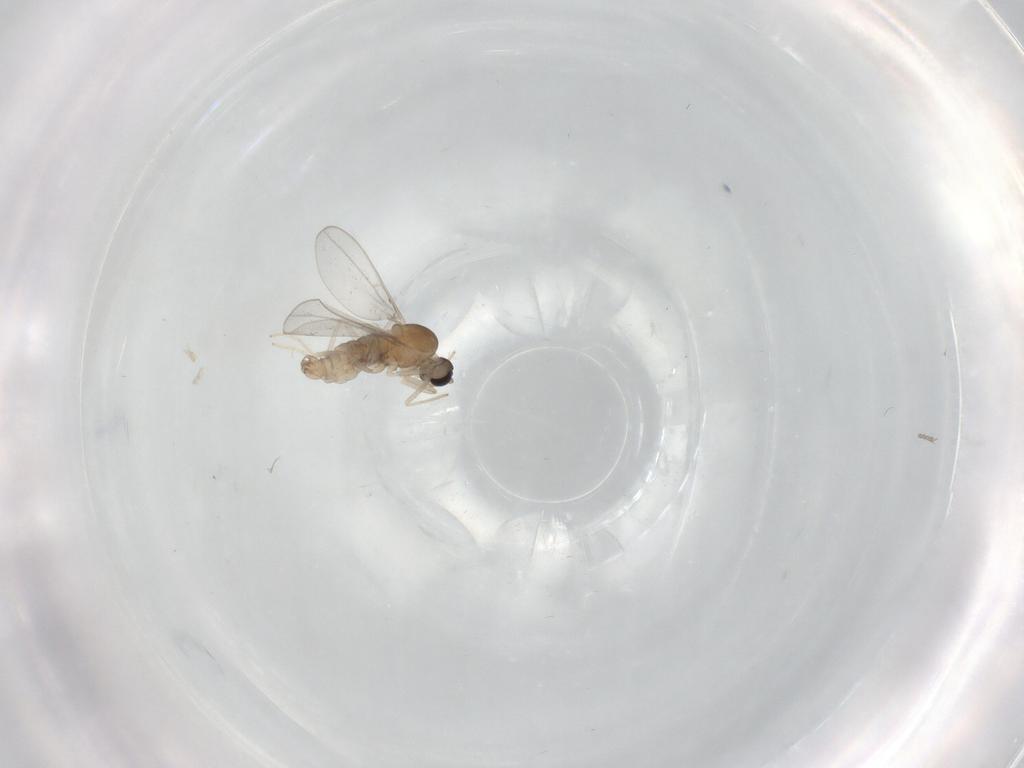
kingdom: Animalia
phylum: Arthropoda
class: Insecta
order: Diptera
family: Cecidomyiidae
